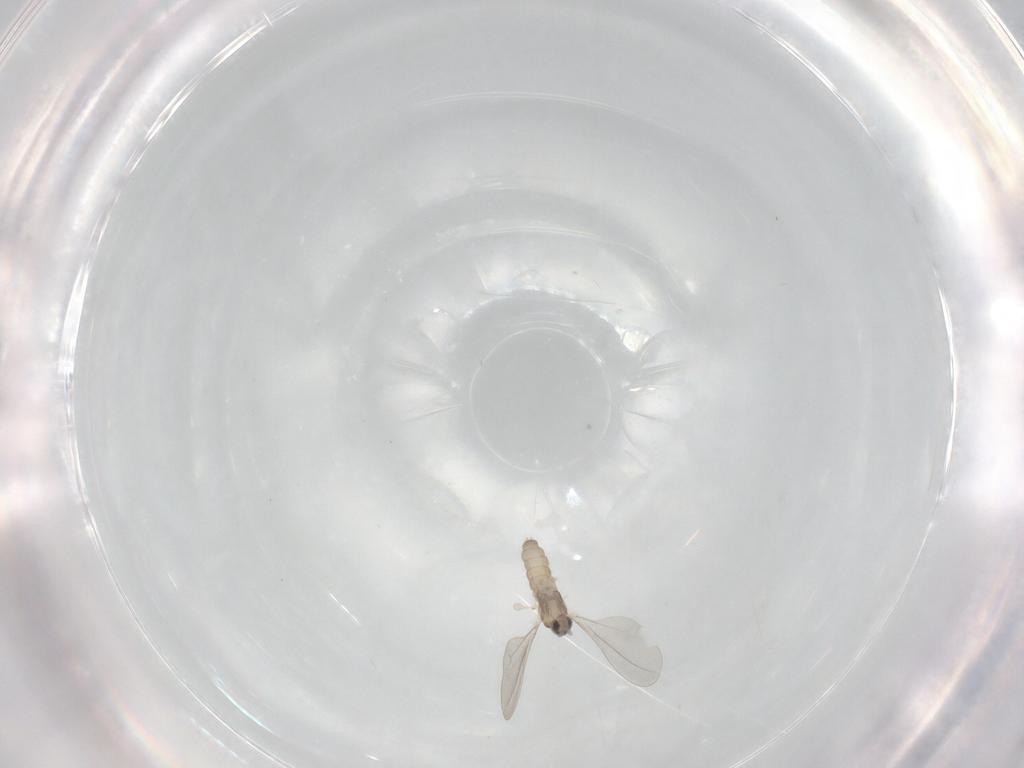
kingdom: Animalia
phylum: Arthropoda
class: Insecta
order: Diptera
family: Cecidomyiidae
